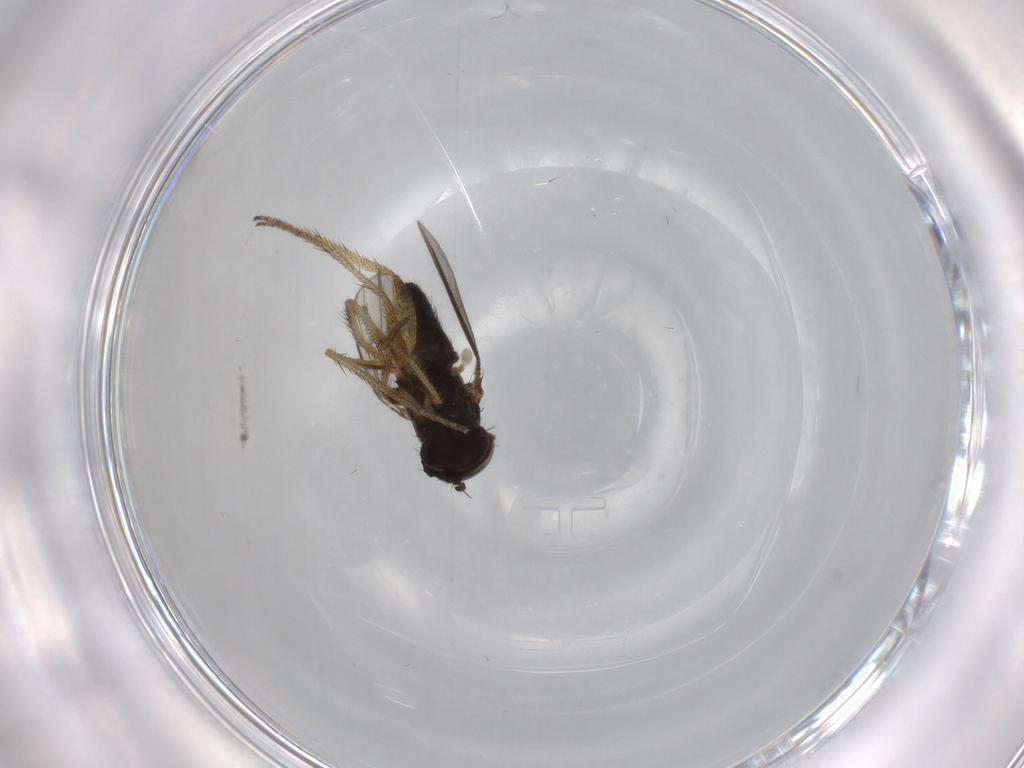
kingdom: Animalia
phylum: Arthropoda
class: Insecta
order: Diptera
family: Dolichopodidae
